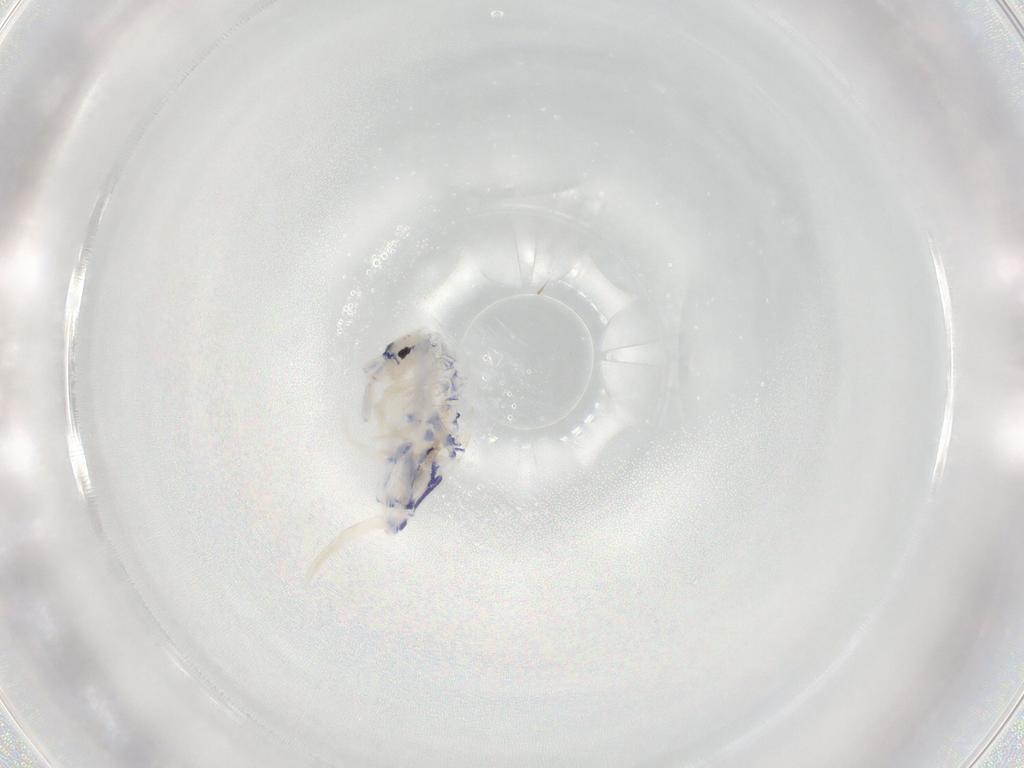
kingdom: Animalia
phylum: Arthropoda
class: Collembola
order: Entomobryomorpha
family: Entomobryidae
